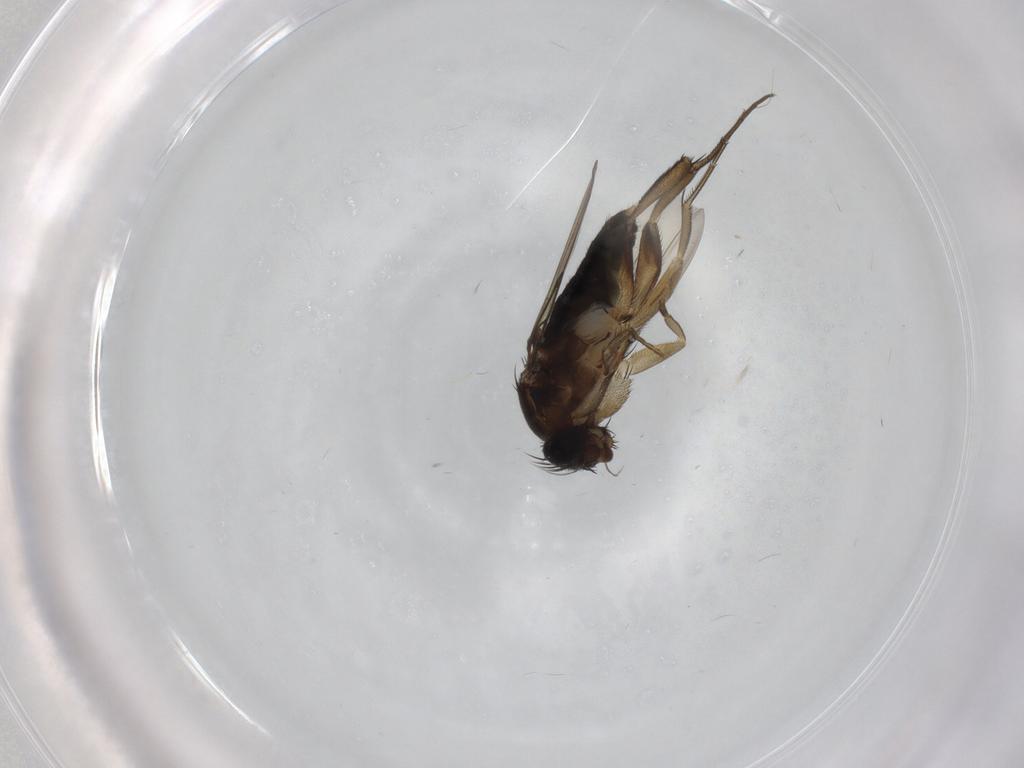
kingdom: Animalia
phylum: Arthropoda
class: Insecta
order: Diptera
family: Phoridae
